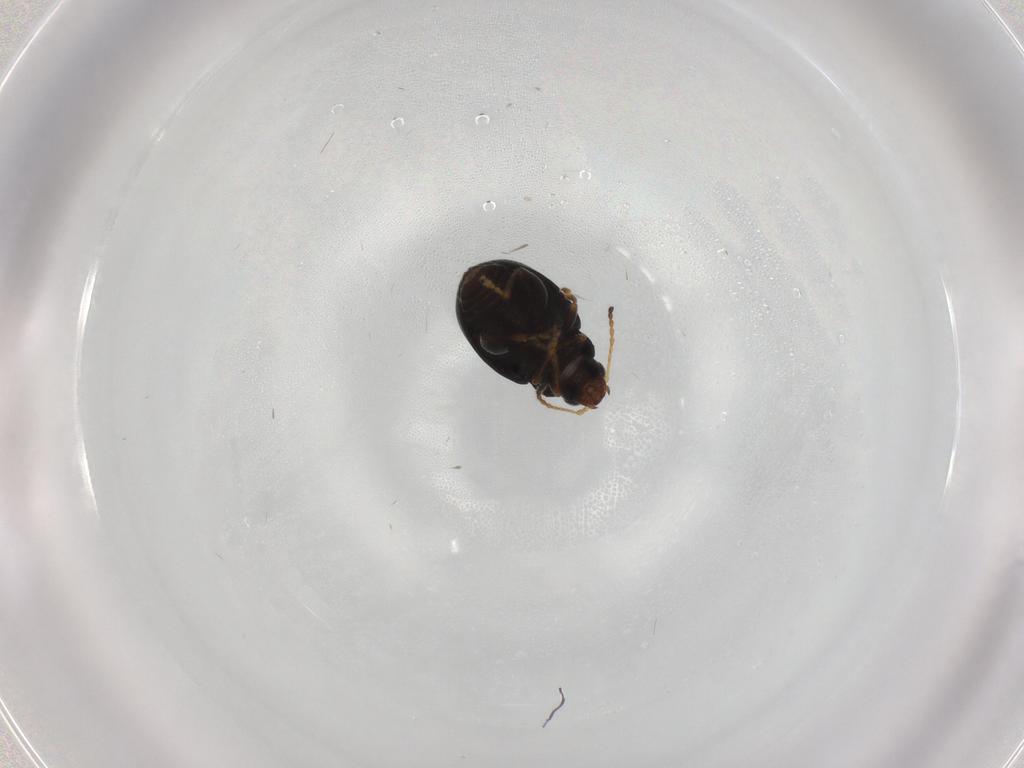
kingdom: Animalia
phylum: Arthropoda
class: Insecta
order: Coleoptera
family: Chrysomelidae
